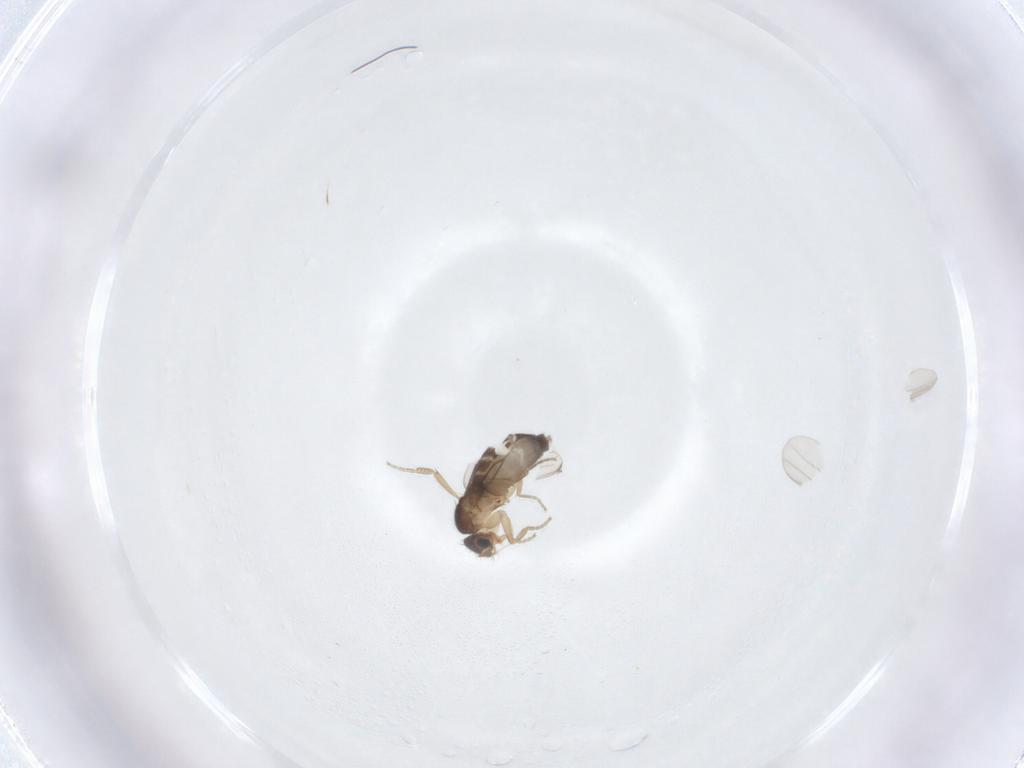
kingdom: Animalia
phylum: Arthropoda
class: Insecta
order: Diptera
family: Phoridae
